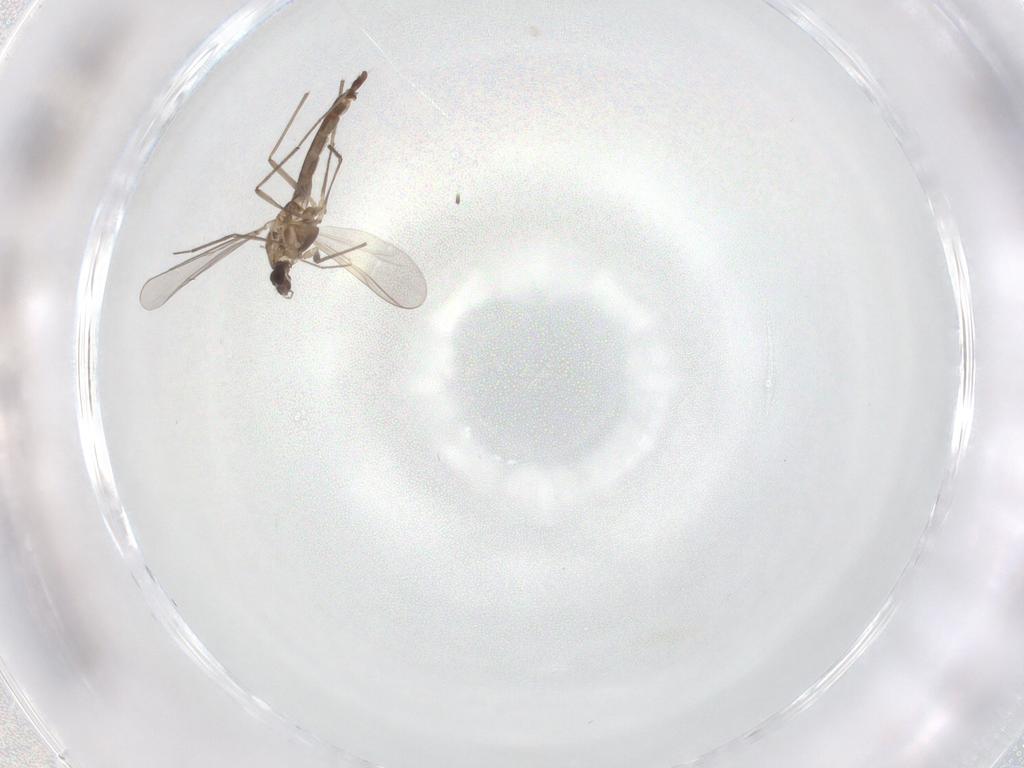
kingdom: Animalia
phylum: Arthropoda
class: Insecta
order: Diptera
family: Chironomidae
